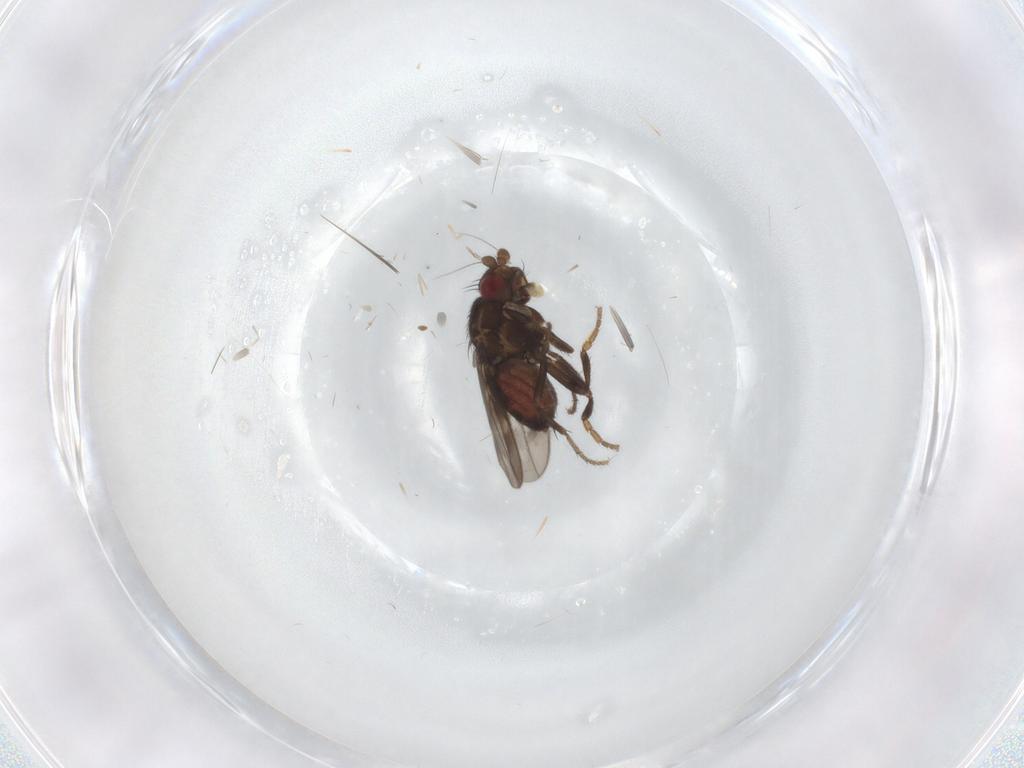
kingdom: Animalia
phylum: Arthropoda
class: Insecta
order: Diptera
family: Sphaeroceridae
